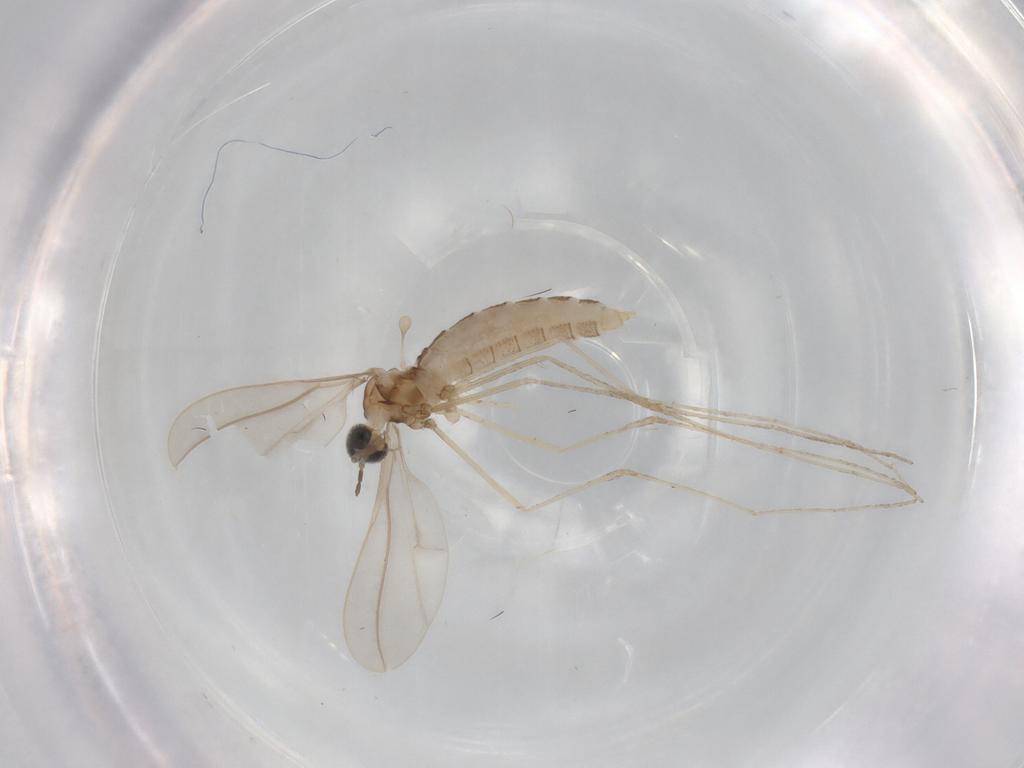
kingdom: Animalia
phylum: Arthropoda
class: Insecta
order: Diptera
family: Cecidomyiidae
